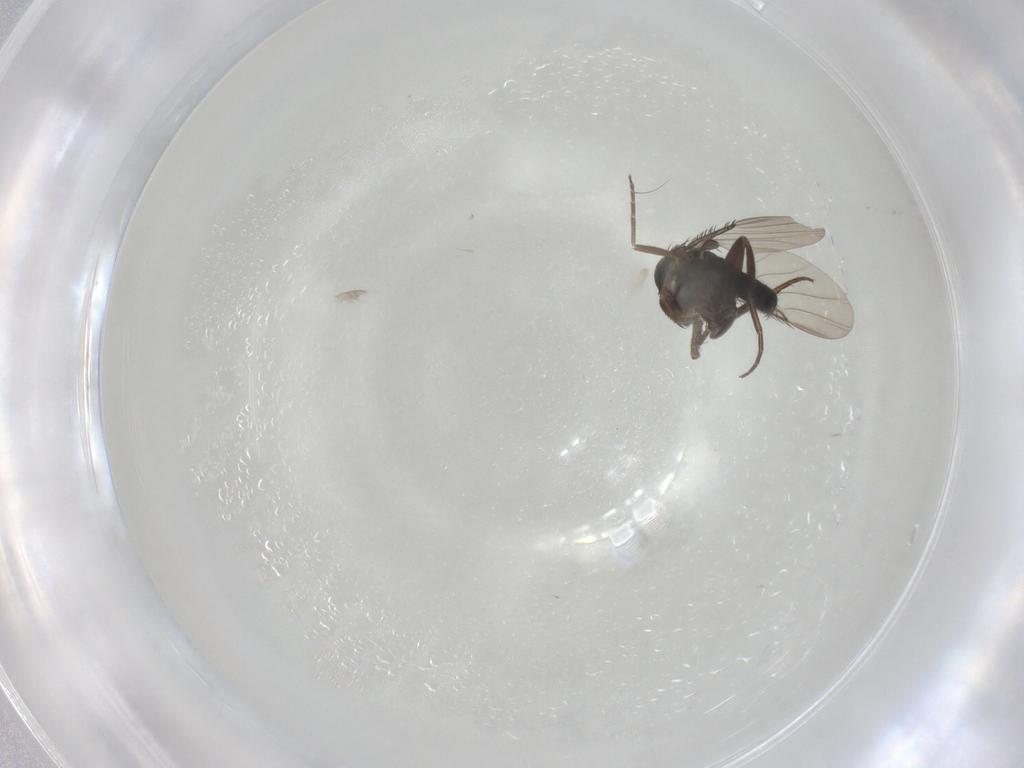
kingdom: Animalia
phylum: Arthropoda
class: Insecta
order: Diptera
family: Phoridae
